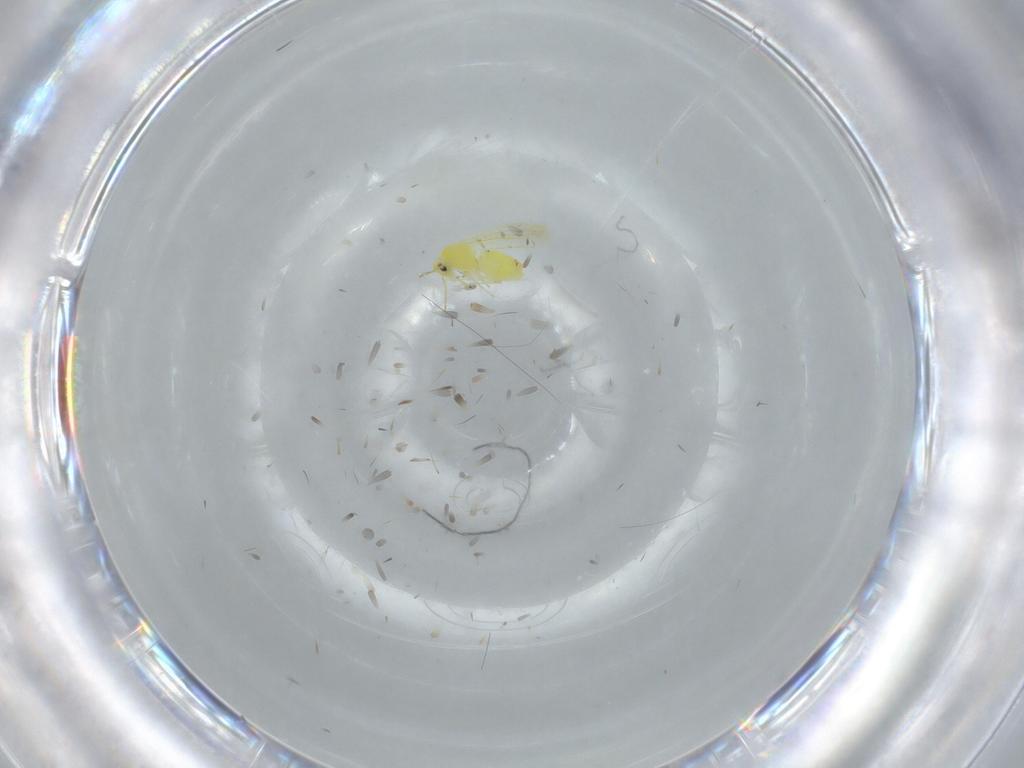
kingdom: Animalia
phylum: Arthropoda
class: Insecta
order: Hemiptera
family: Aleyrodidae
